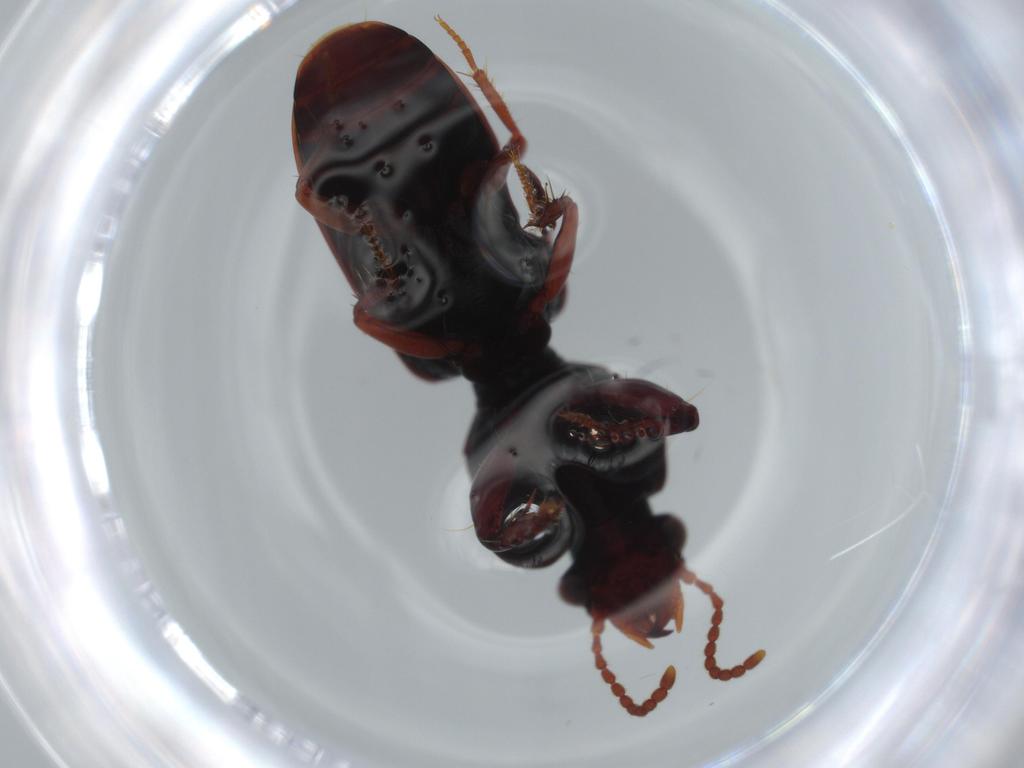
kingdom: Animalia
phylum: Arthropoda
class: Insecta
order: Coleoptera
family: Carabidae
